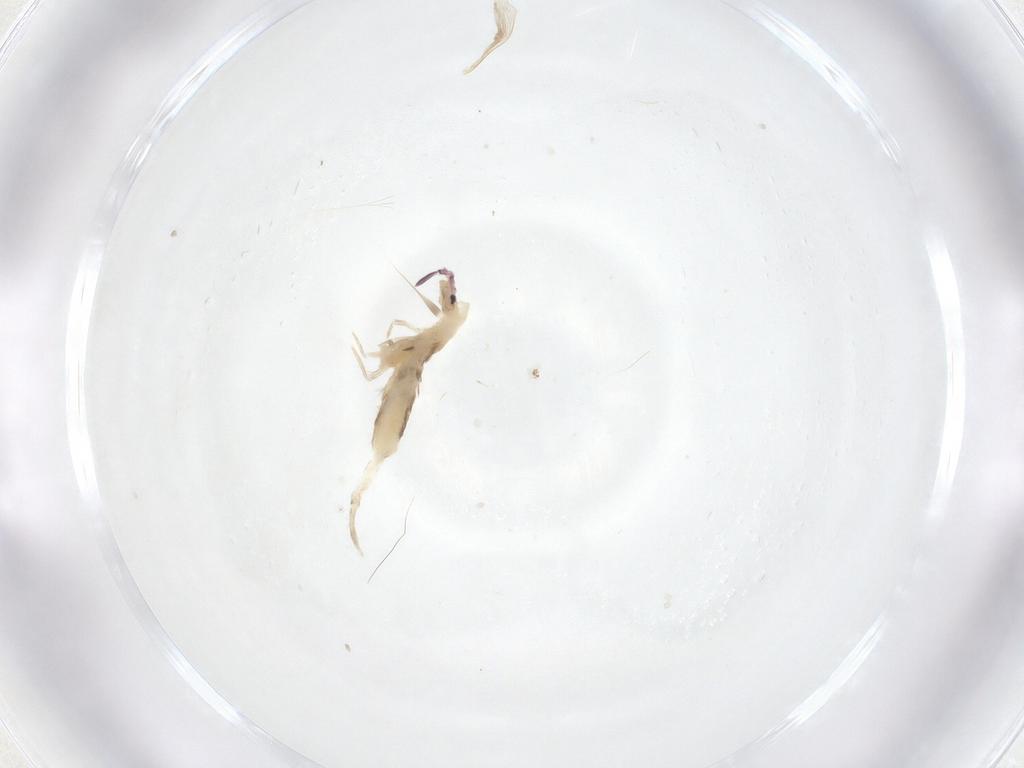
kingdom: Animalia
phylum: Arthropoda
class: Collembola
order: Entomobryomorpha
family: Entomobryidae
